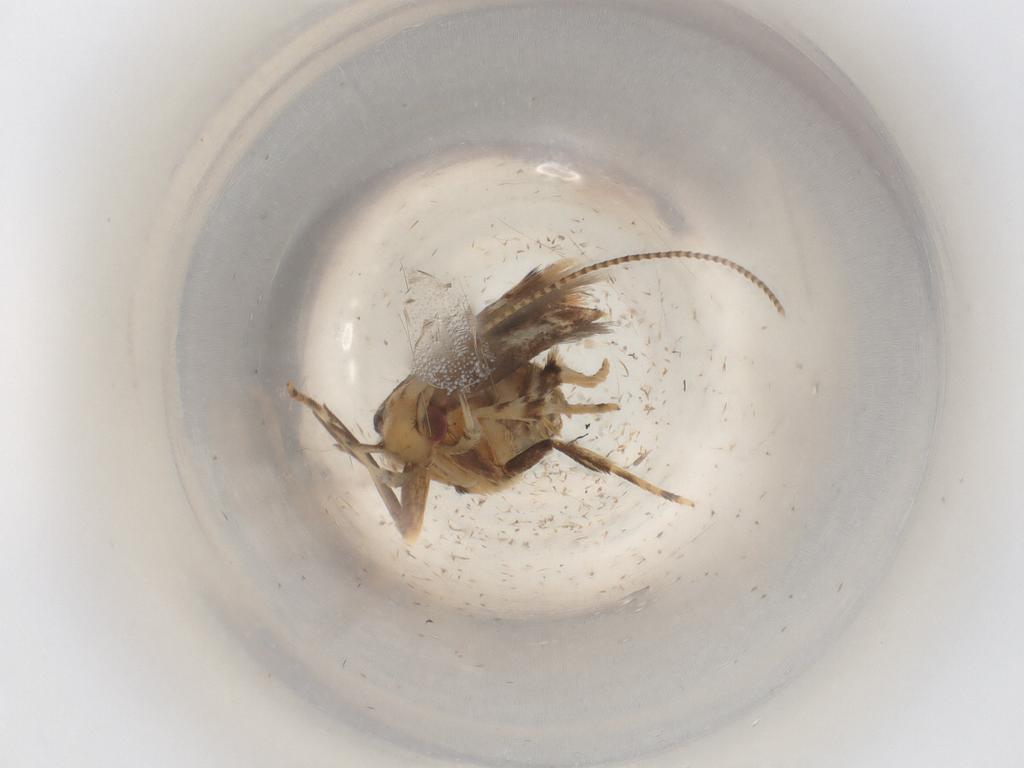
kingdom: Animalia
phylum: Arthropoda
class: Insecta
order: Lepidoptera
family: Cosmopterigidae
